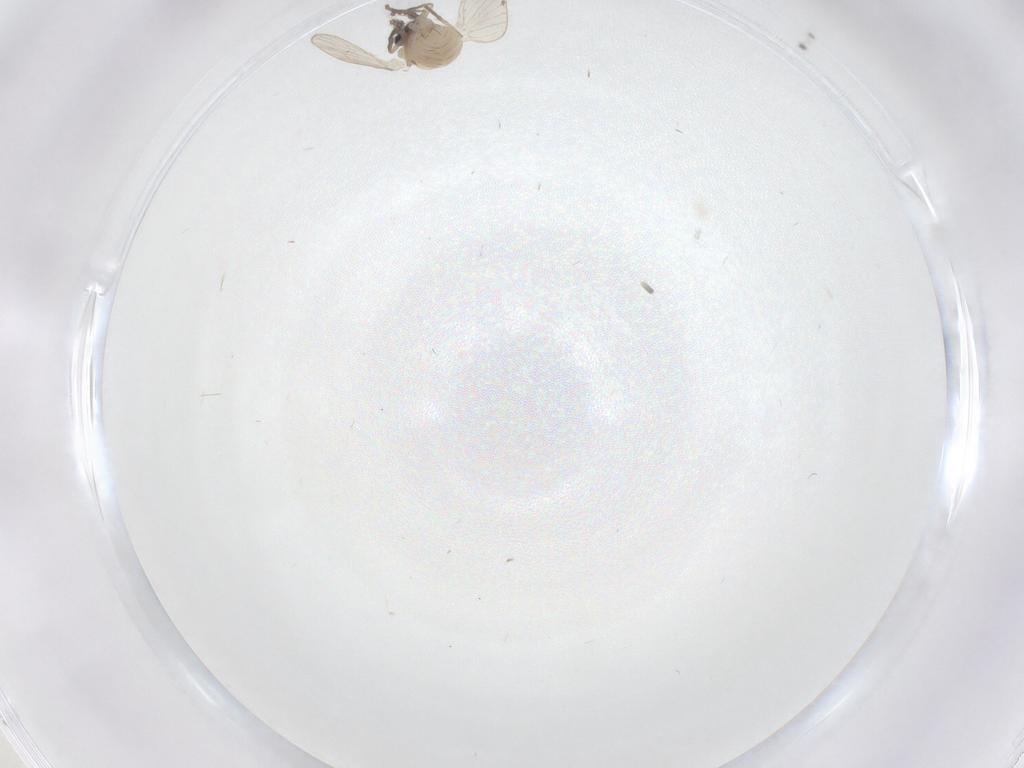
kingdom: Animalia
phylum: Arthropoda
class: Insecta
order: Diptera
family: Psychodidae
